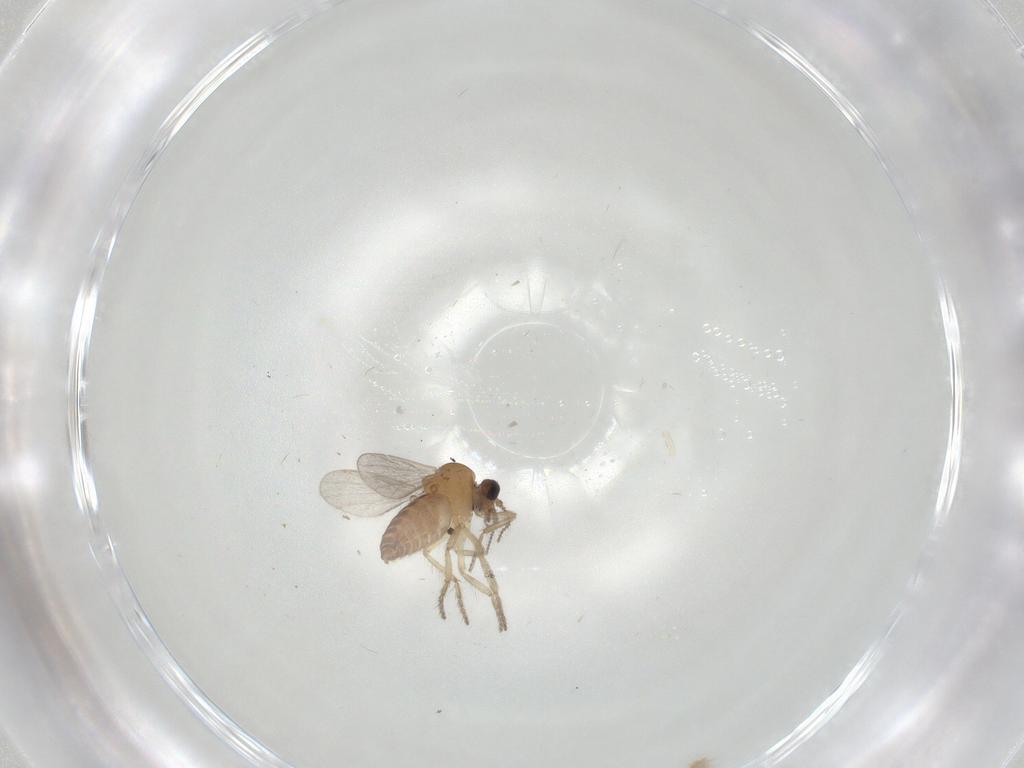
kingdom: Animalia
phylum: Arthropoda
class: Insecta
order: Diptera
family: Ceratopogonidae
